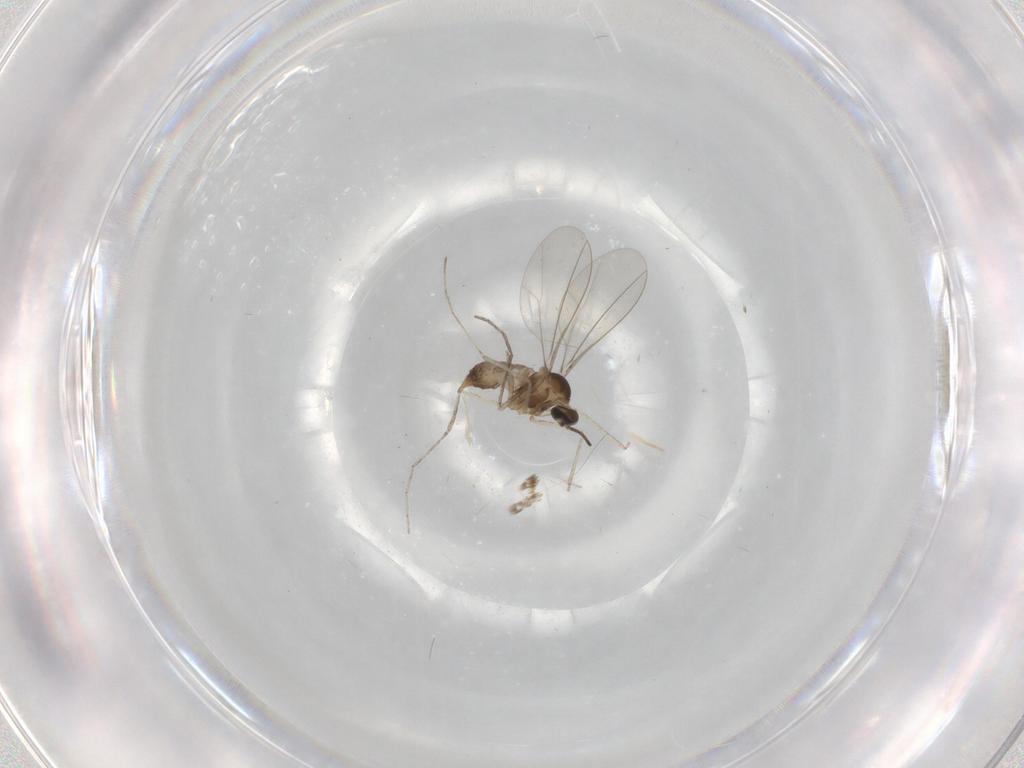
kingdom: Animalia
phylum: Arthropoda
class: Insecta
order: Diptera
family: Cecidomyiidae
